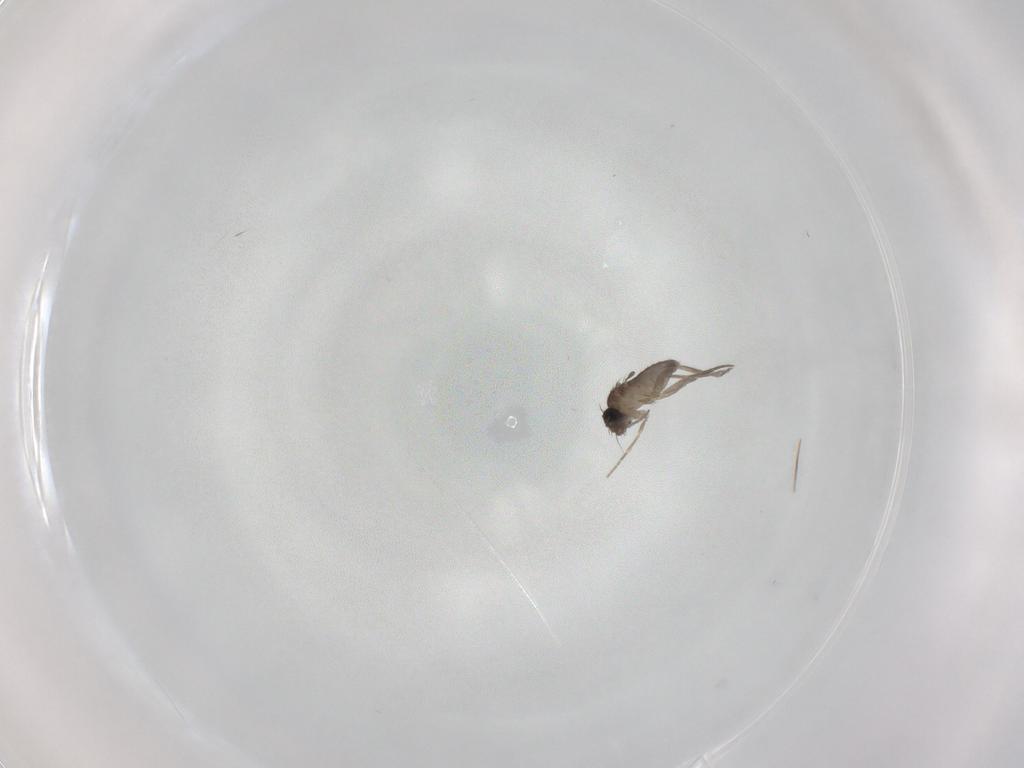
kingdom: Animalia
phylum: Arthropoda
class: Insecta
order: Diptera
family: Phoridae
